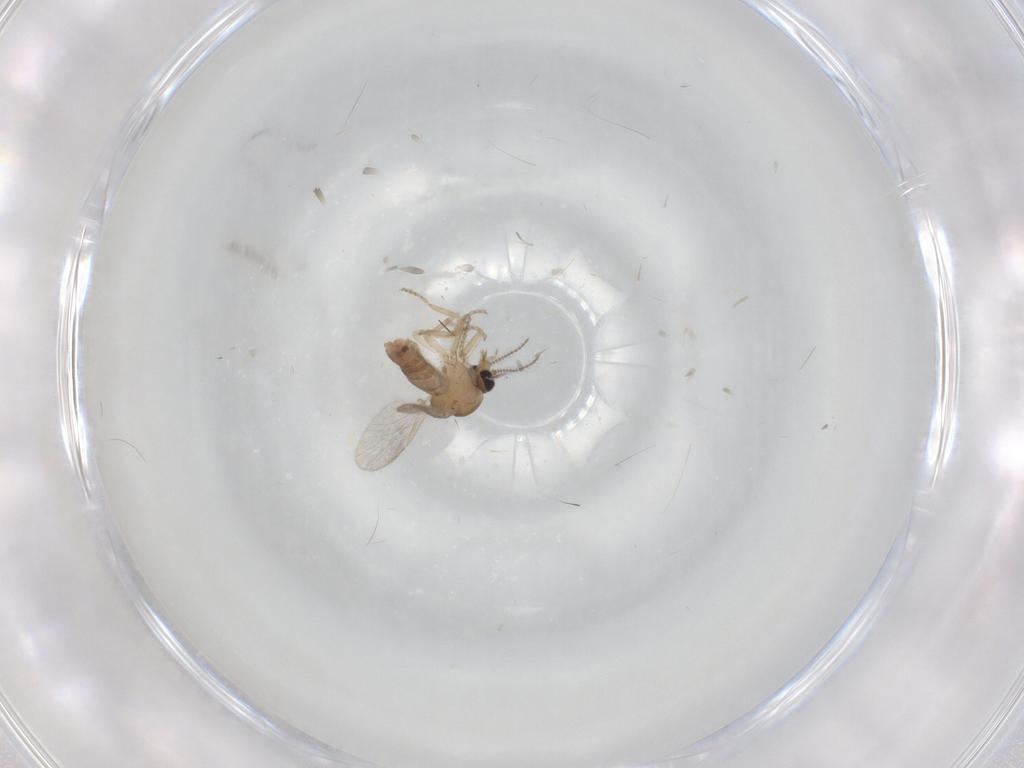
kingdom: Animalia
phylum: Arthropoda
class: Insecta
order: Diptera
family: Ceratopogonidae
